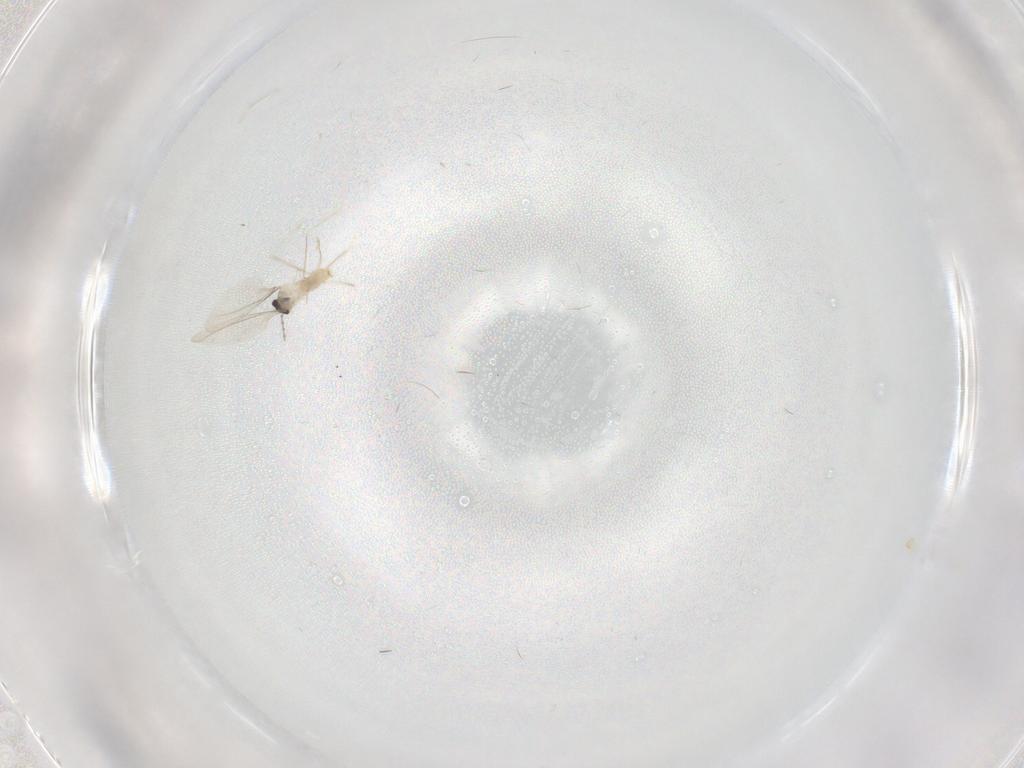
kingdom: Animalia
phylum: Arthropoda
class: Insecta
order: Diptera
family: Cecidomyiidae
